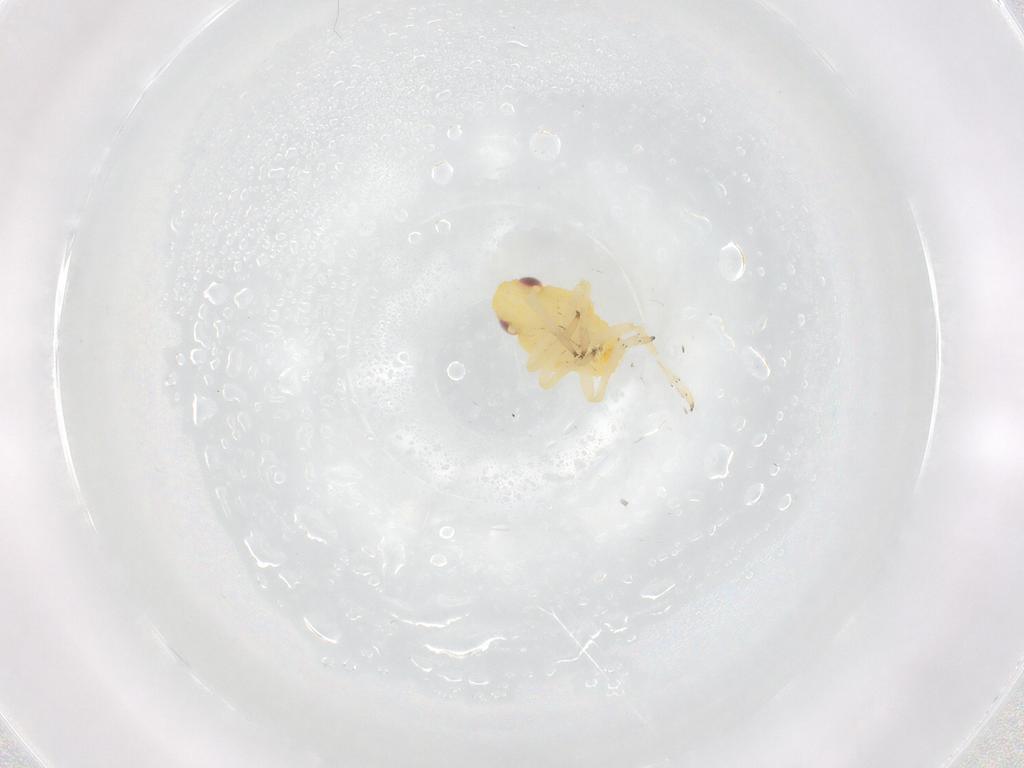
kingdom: Animalia
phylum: Arthropoda
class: Insecta
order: Hemiptera
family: Caliscelidae
